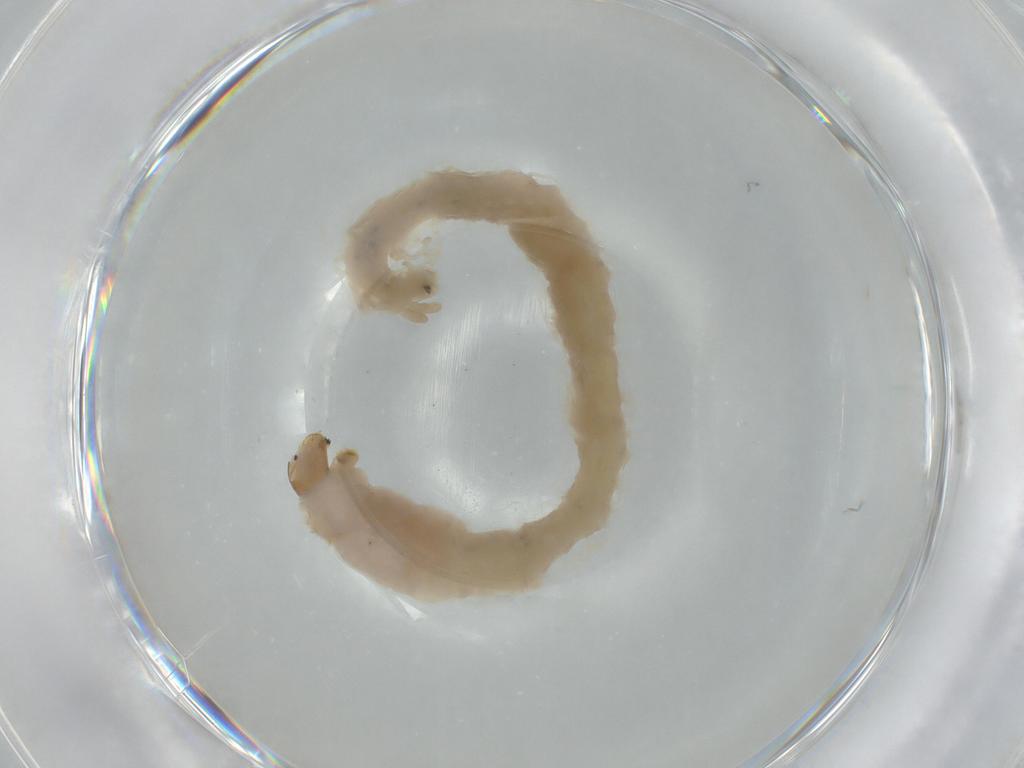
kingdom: Animalia
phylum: Arthropoda
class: Insecta
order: Diptera
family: Chironomidae
